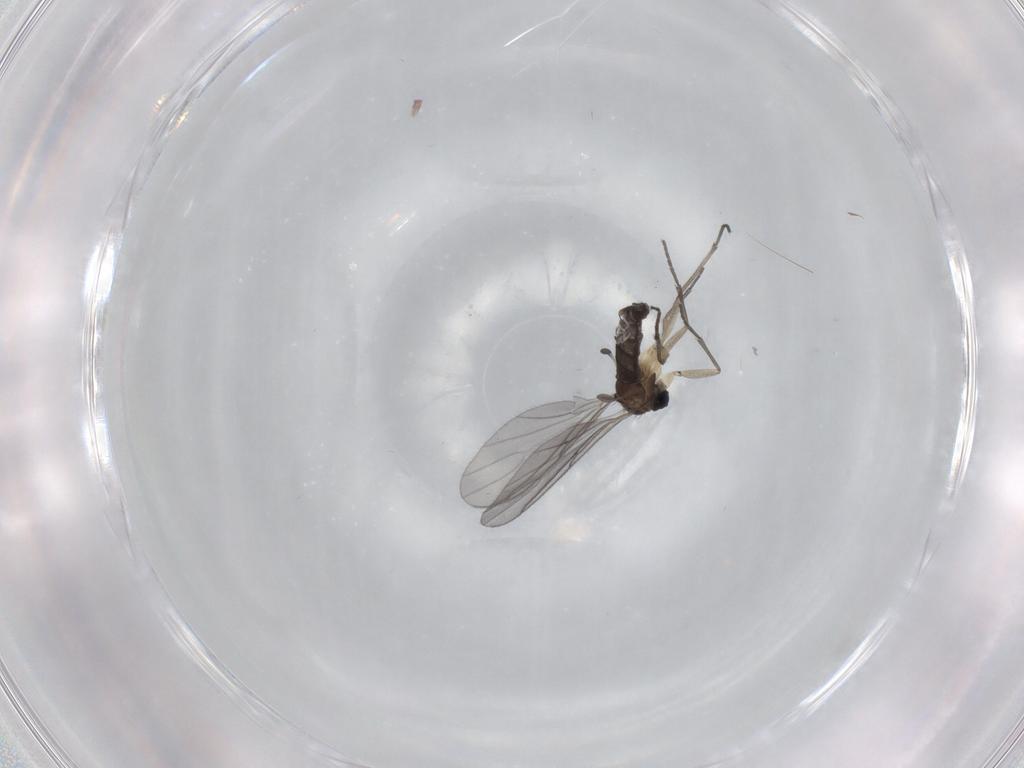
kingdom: Animalia
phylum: Arthropoda
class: Insecta
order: Diptera
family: Sciaridae
